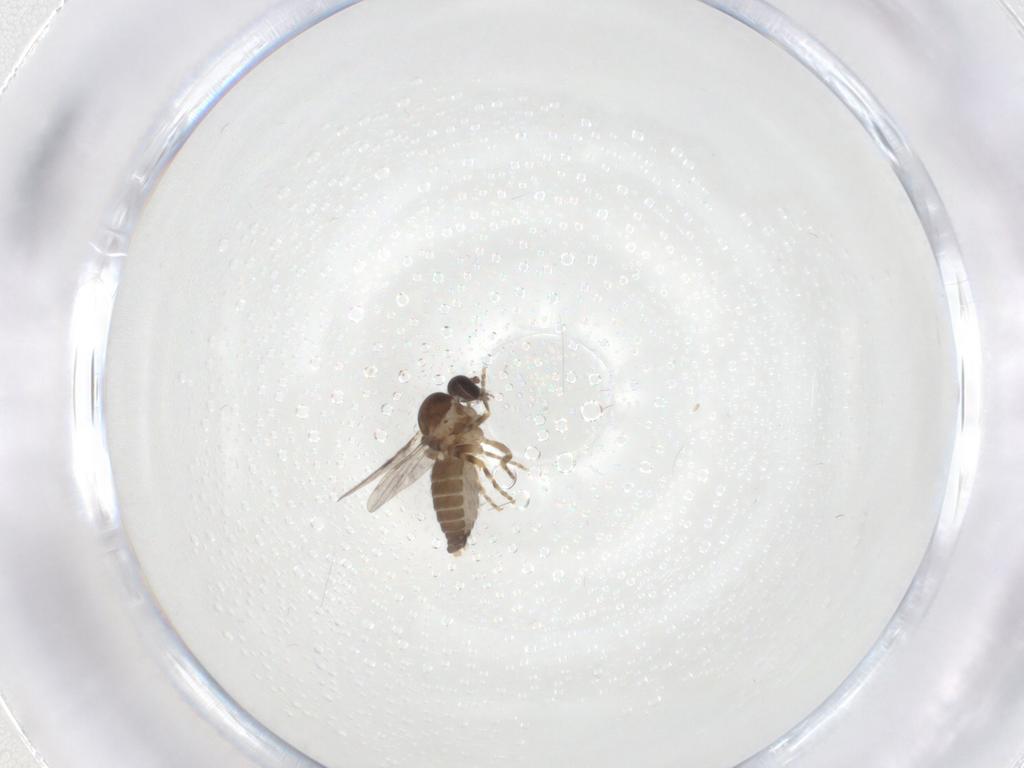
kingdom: Animalia
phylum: Arthropoda
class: Insecta
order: Diptera
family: Ceratopogonidae
